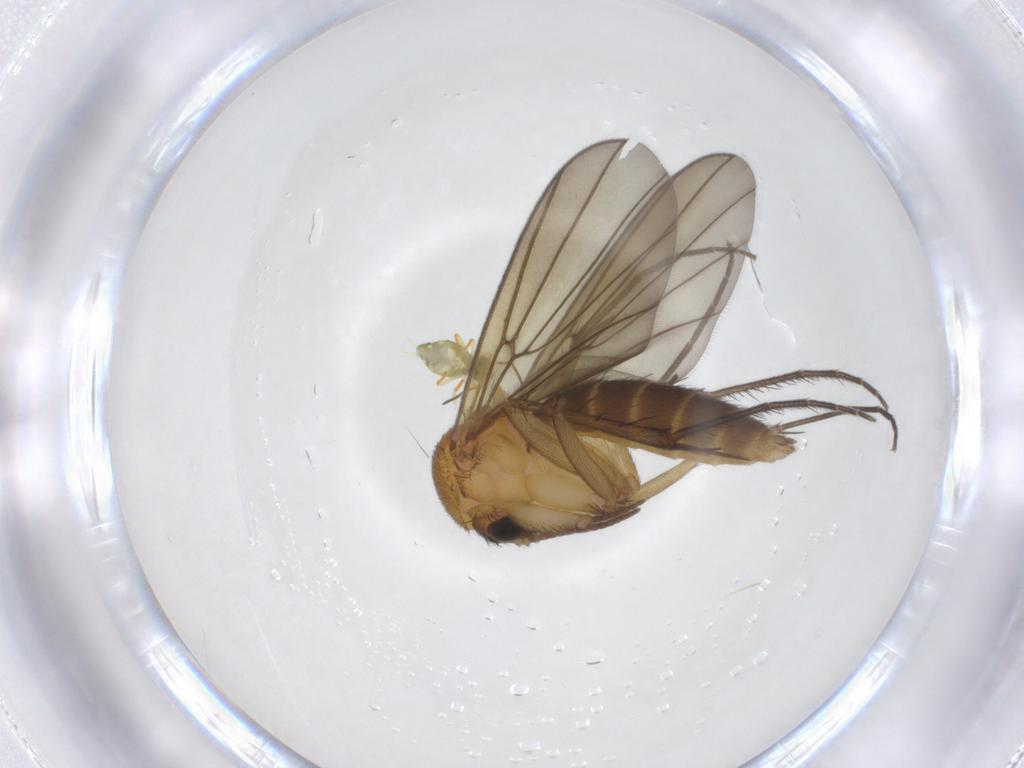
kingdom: Animalia
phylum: Arthropoda
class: Insecta
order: Diptera
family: Mycetophilidae
